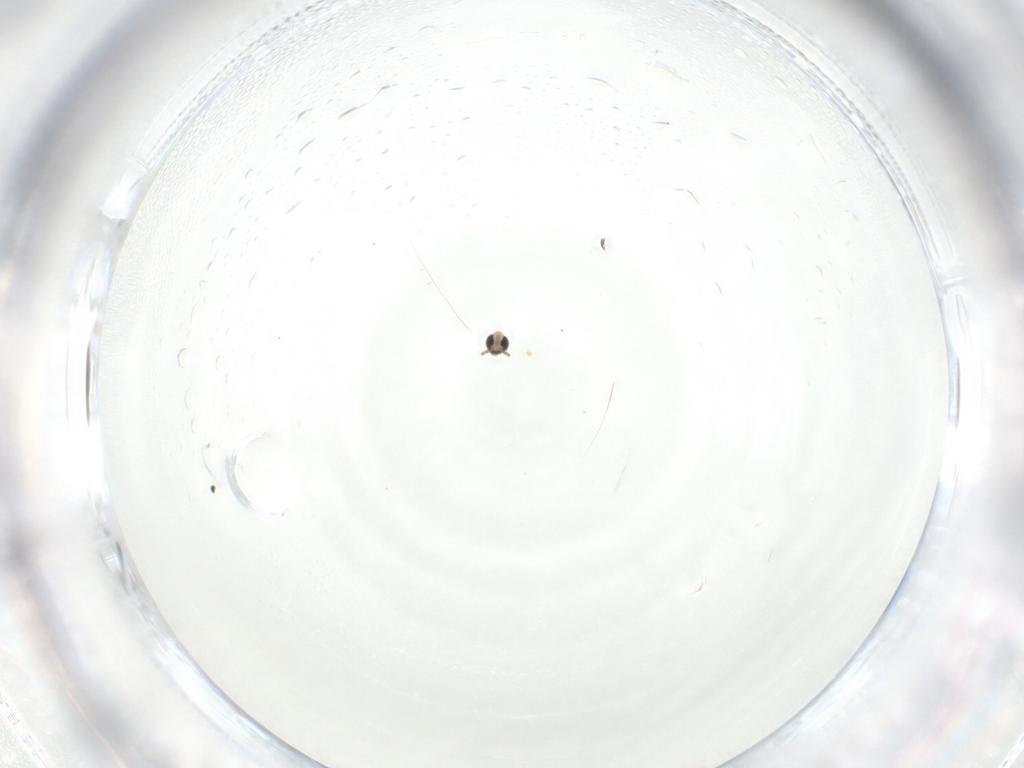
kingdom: Animalia
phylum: Arthropoda
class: Insecta
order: Diptera
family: Cecidomyiidae
